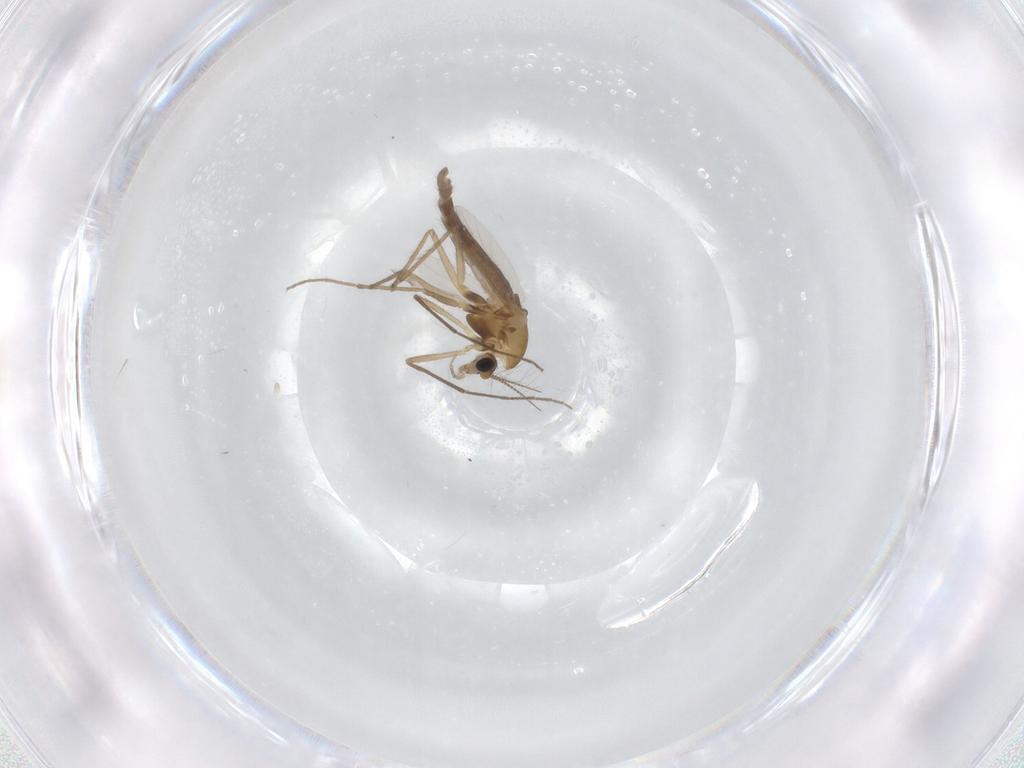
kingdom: Animalia
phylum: Arthropoda
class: Insecta
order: Diptera
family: Chironomidae
